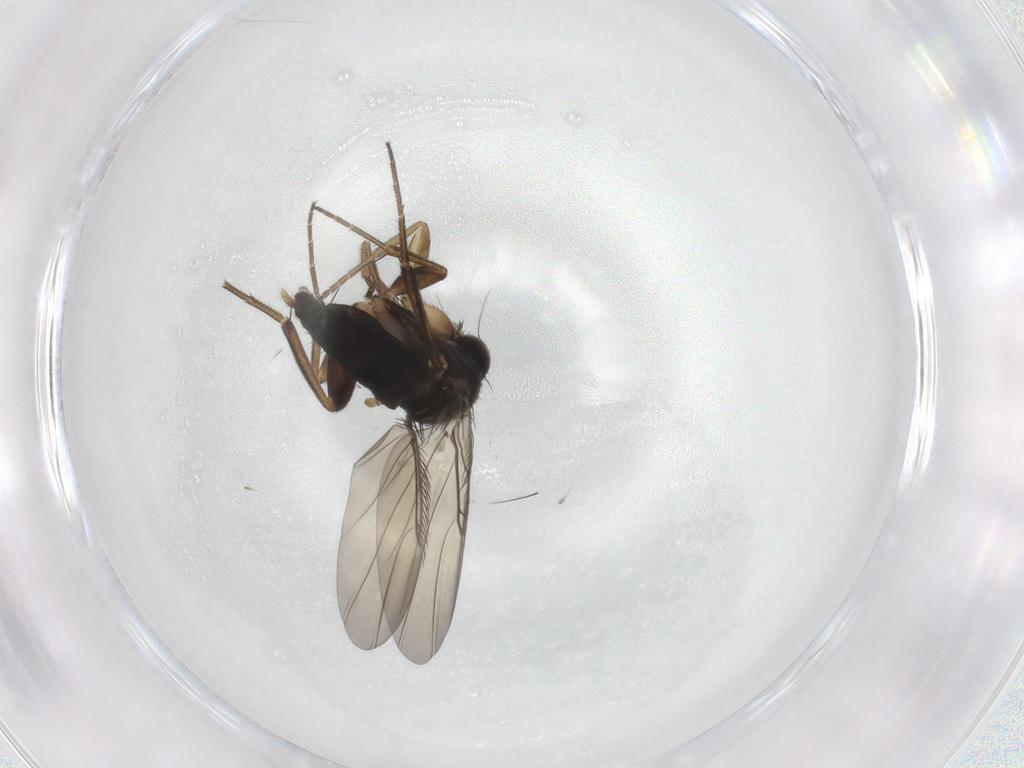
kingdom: Animalia
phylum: Arthropoda
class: Insecta
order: Diptera
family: Phoridae
